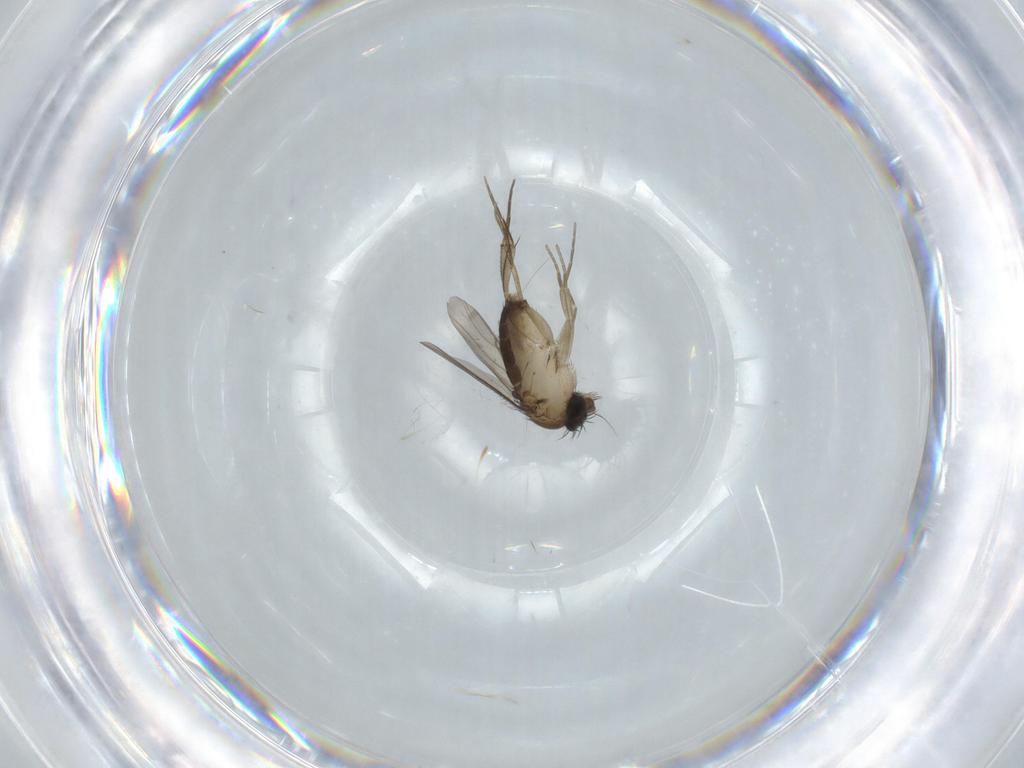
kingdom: Animalia
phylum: Arthropoda
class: Insecta
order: Diptera
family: Phoridae
